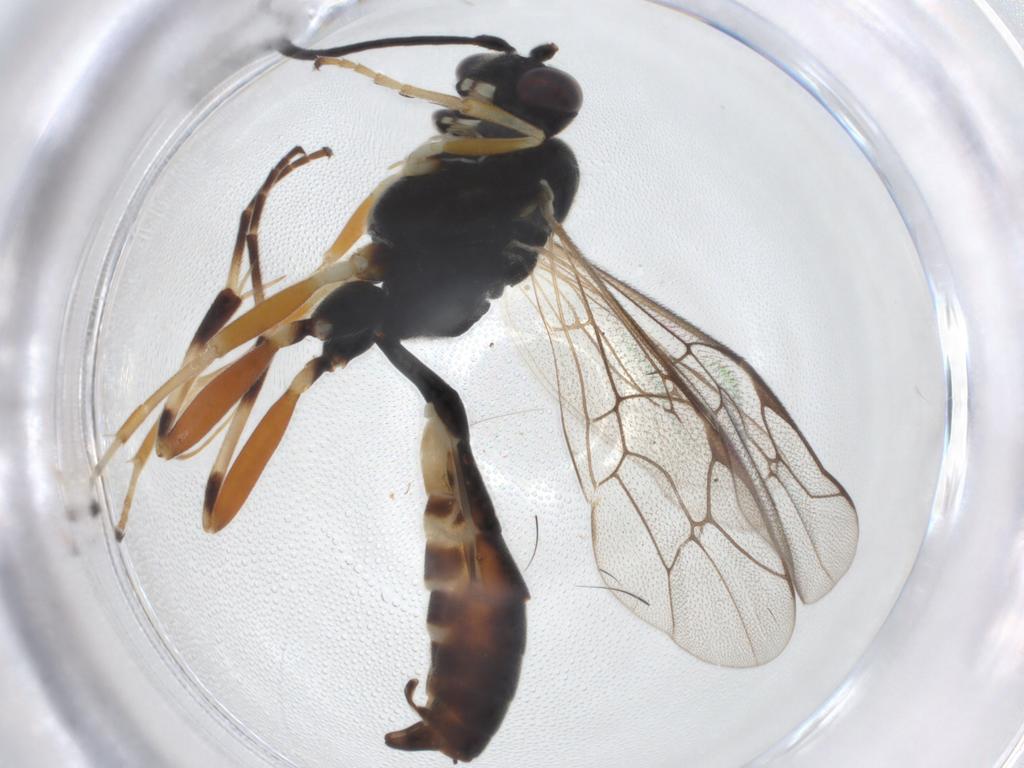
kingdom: Animalia
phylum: Arthropoda
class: Insecta
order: Hymenoptera
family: Ichneumonidae
